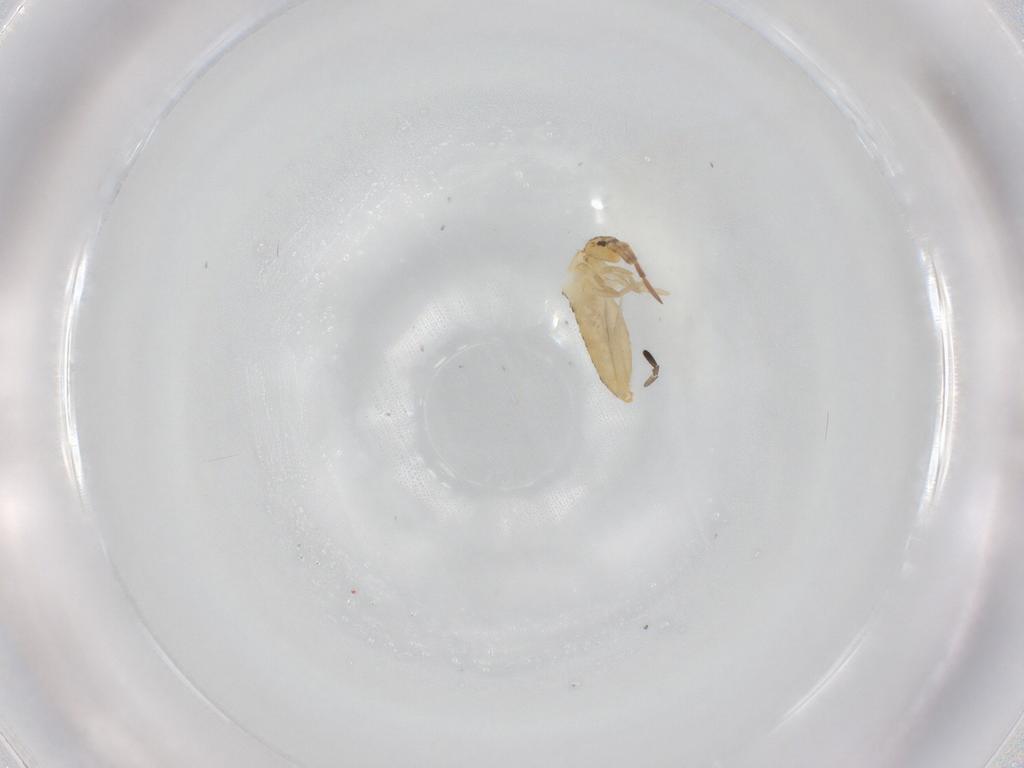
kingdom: Animalia
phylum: Arthropoda
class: Collembola
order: Entomobryomorpha
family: Entomobryidae
